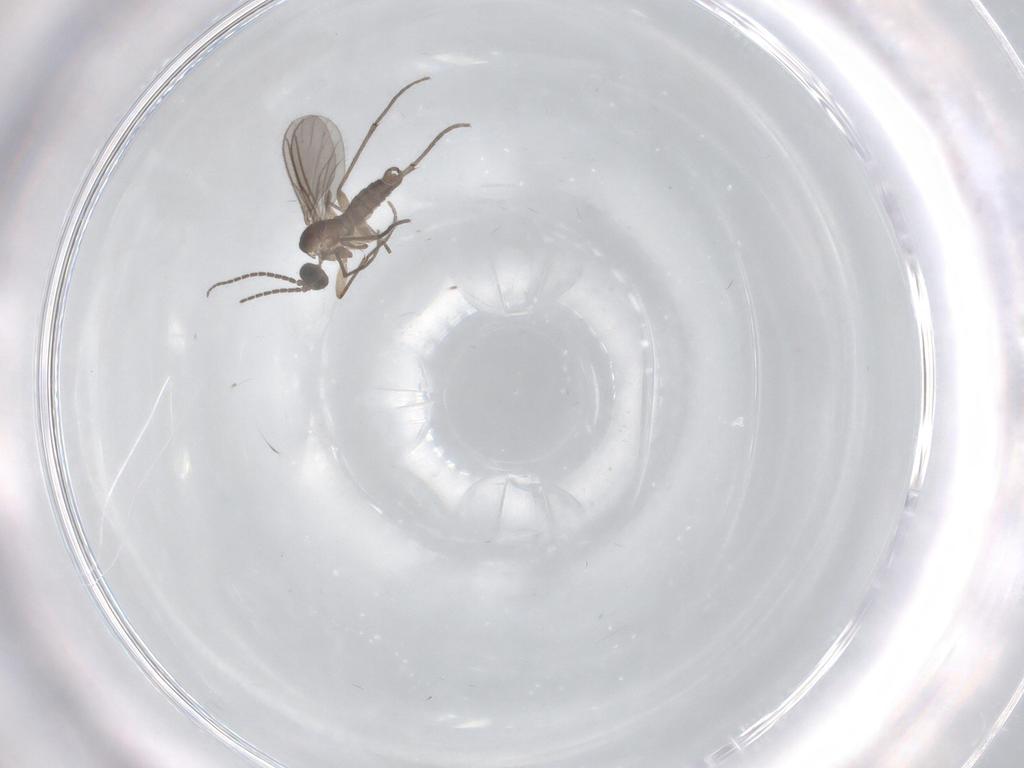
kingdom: Animalia
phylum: Arthropoda
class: Insecta
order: Diptera
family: Sciaridae
